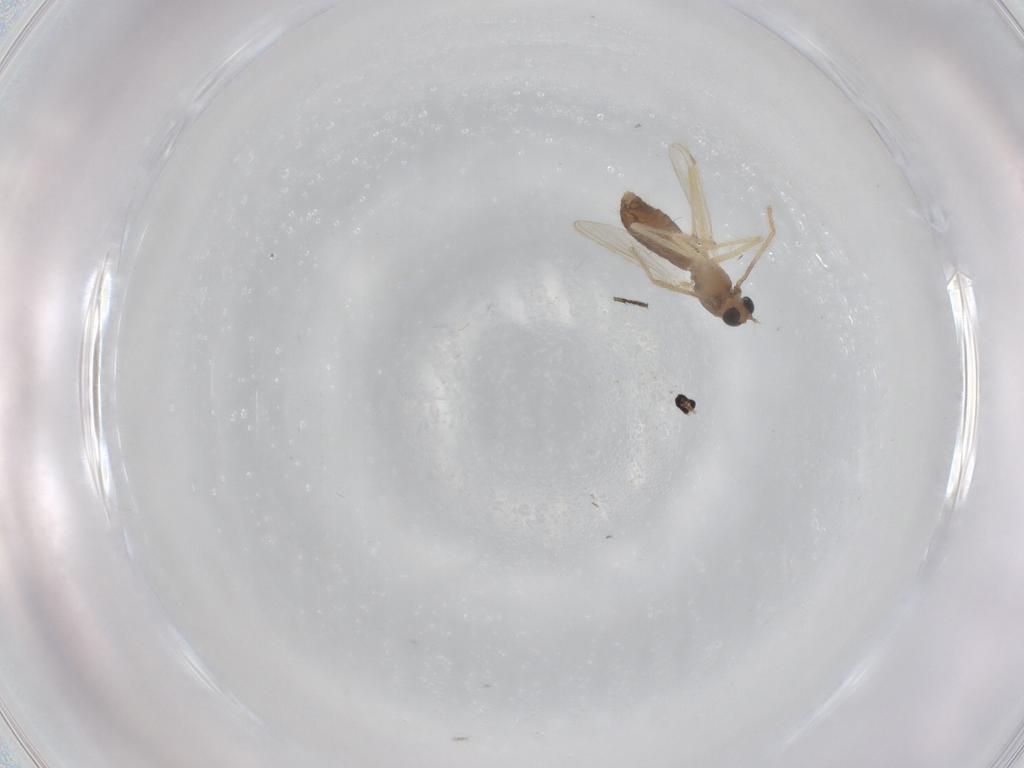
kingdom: Animalia
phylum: Arthropoda
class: Insecta
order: Diptera
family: Chironomidae
